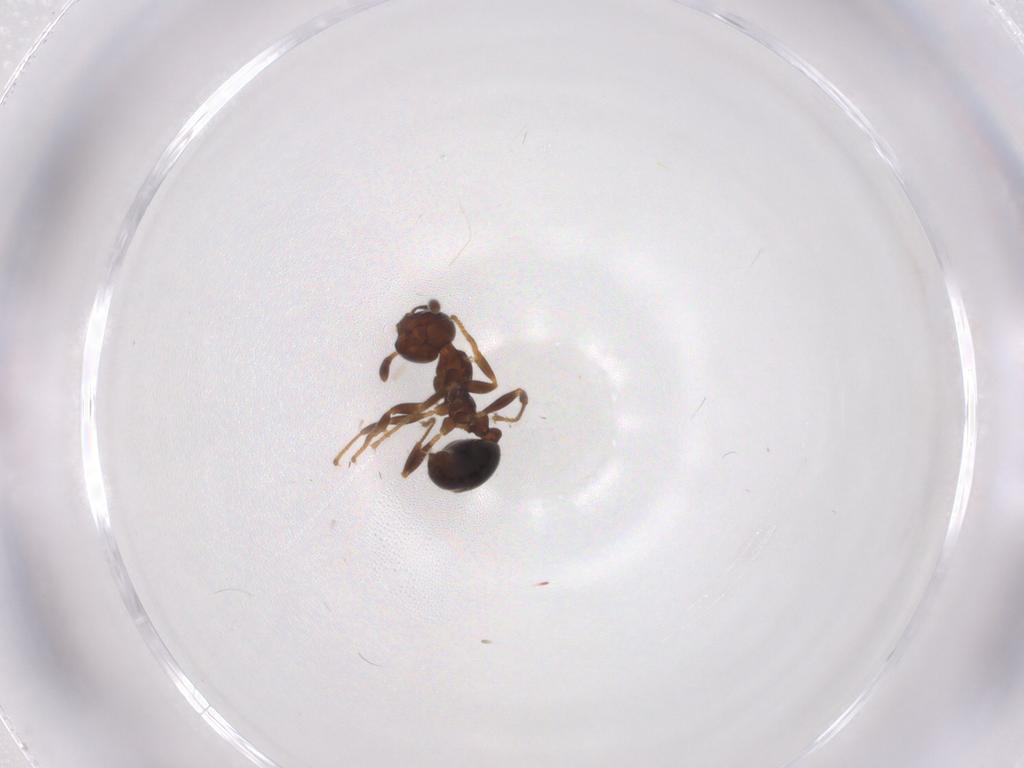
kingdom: Animalia
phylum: Arthropoda
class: Insecta
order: Hymenoptera
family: Formicidae
